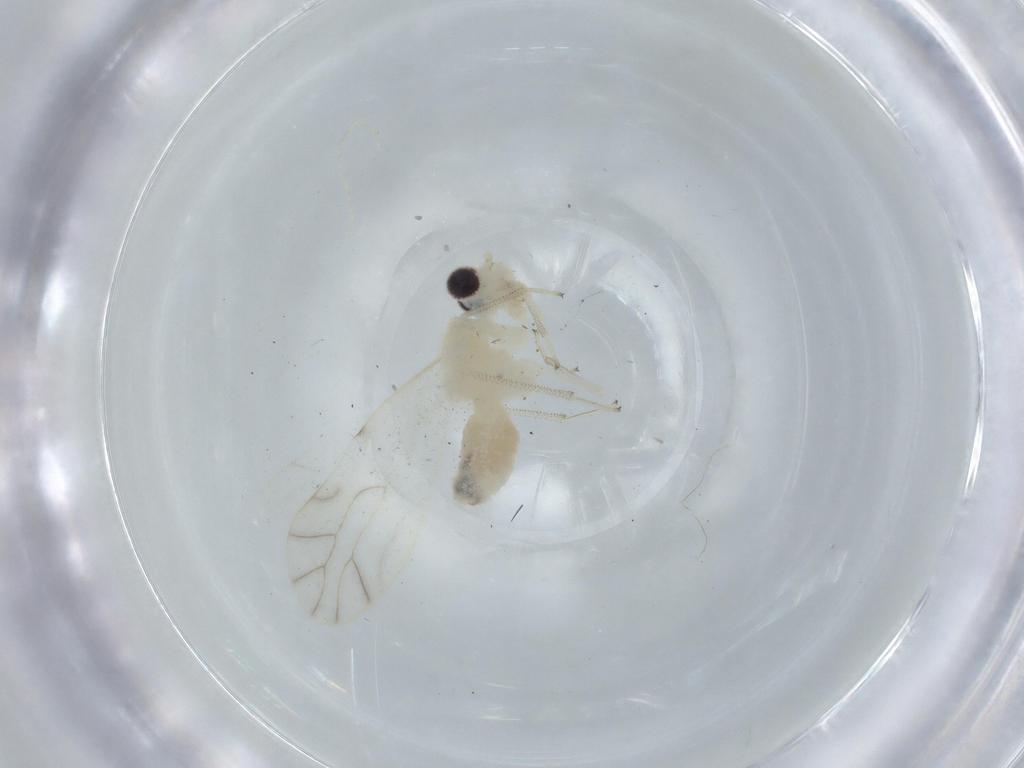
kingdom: Animalia
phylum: Arthropoda
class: Insecta
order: Psocodea
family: Caeciliusidae
